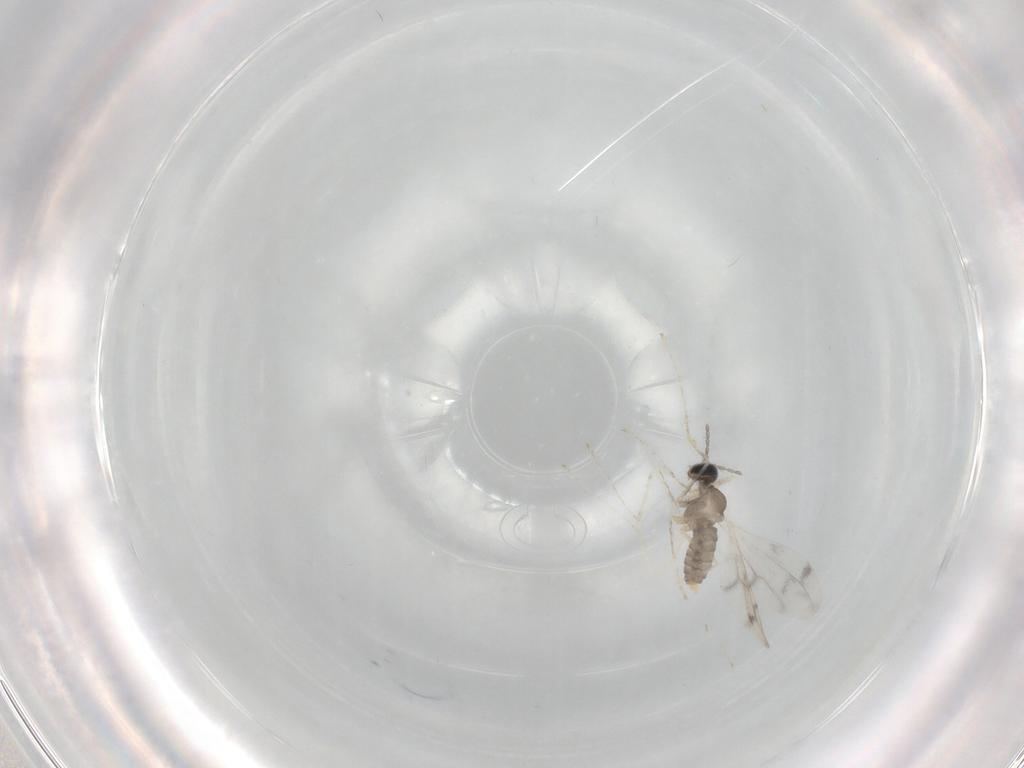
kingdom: Animalia
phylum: Arthropoda
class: Insecta
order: Diptera
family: Cecidomyiidae
